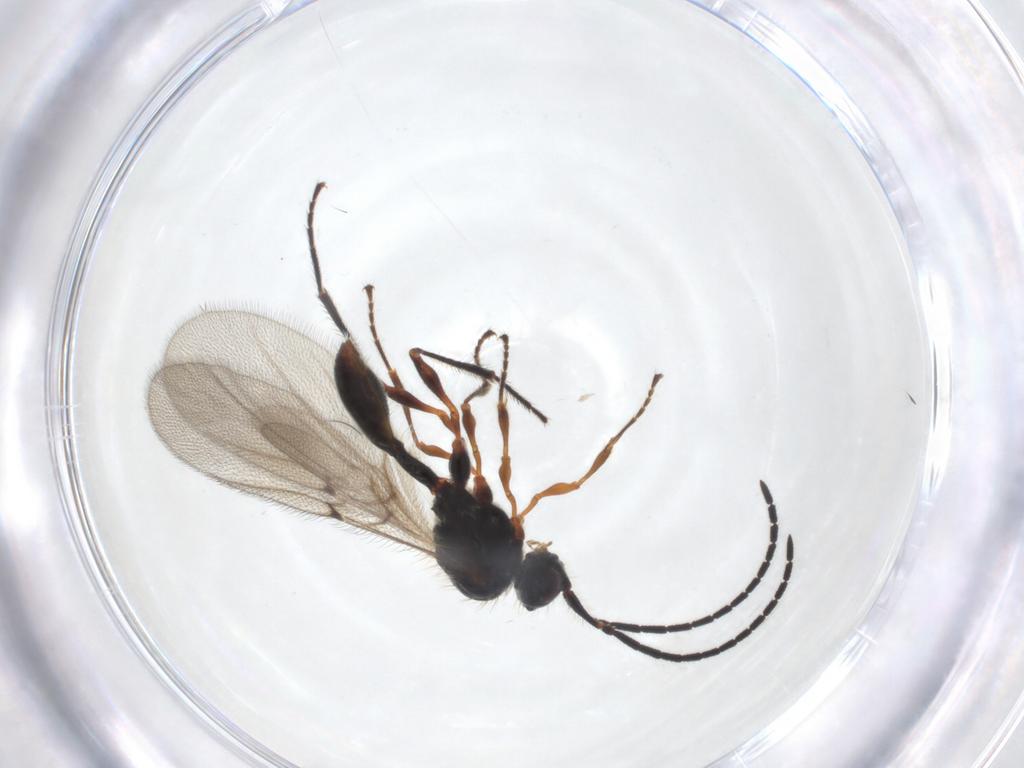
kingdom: Animalia
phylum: Arthropoda
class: Insecta
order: Hymenoptera
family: Diapriidae
